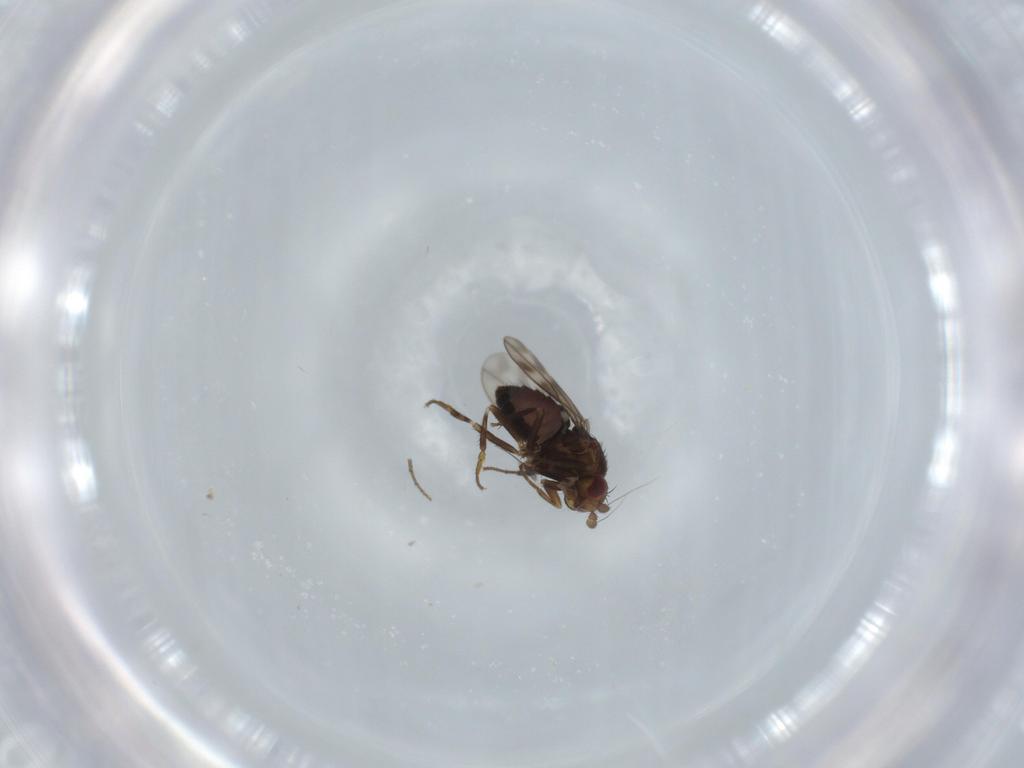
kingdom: Animalia
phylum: Arthropoda
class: Insecta
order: Diptera
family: Sphaeroceridae
